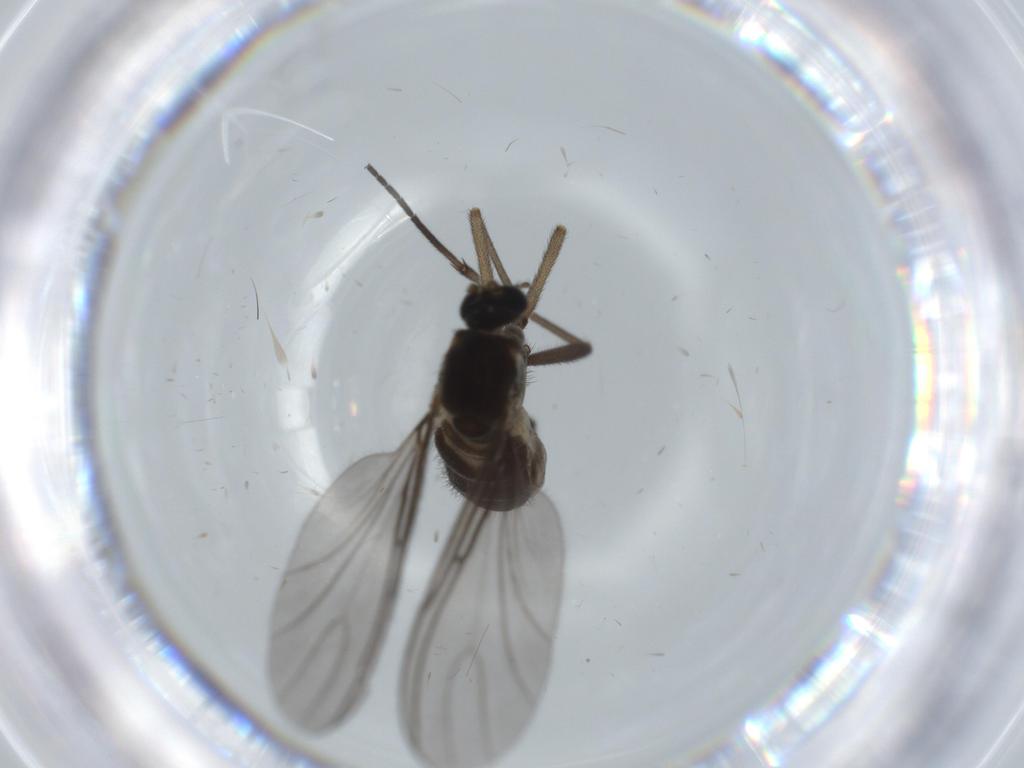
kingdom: Animalia
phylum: Arthropoda
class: Insecta
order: Diptera
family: Sciaridae
